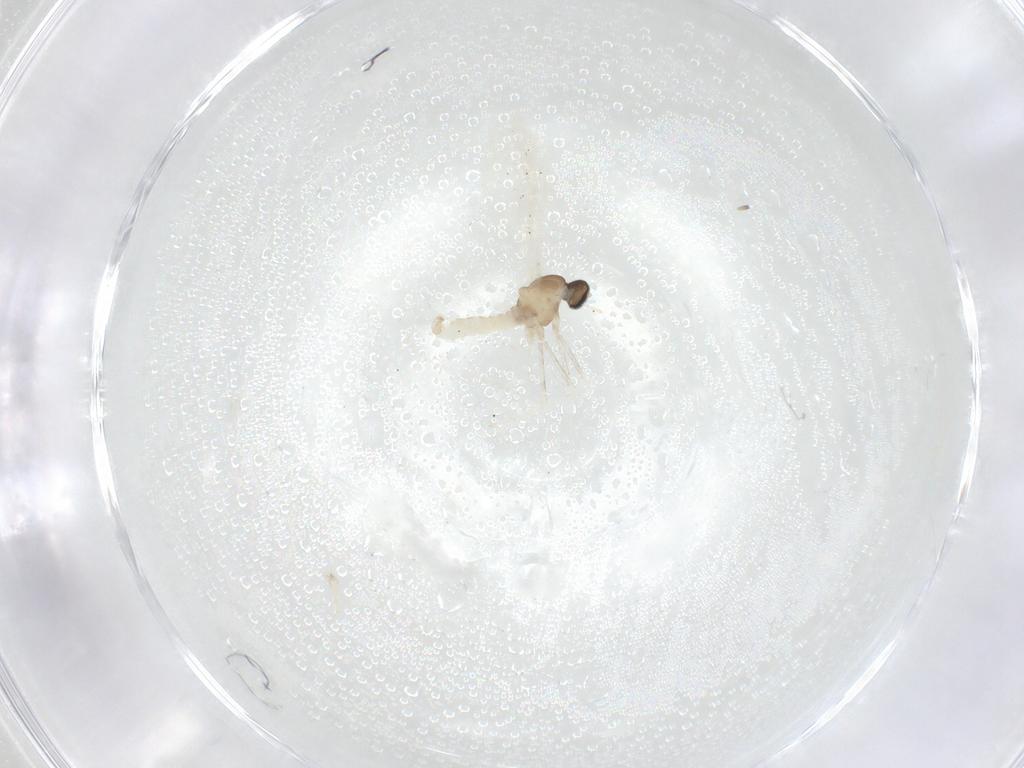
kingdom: Animalia
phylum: Arthropoda
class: Insecta
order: Diptera
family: Cecidomyiidae
